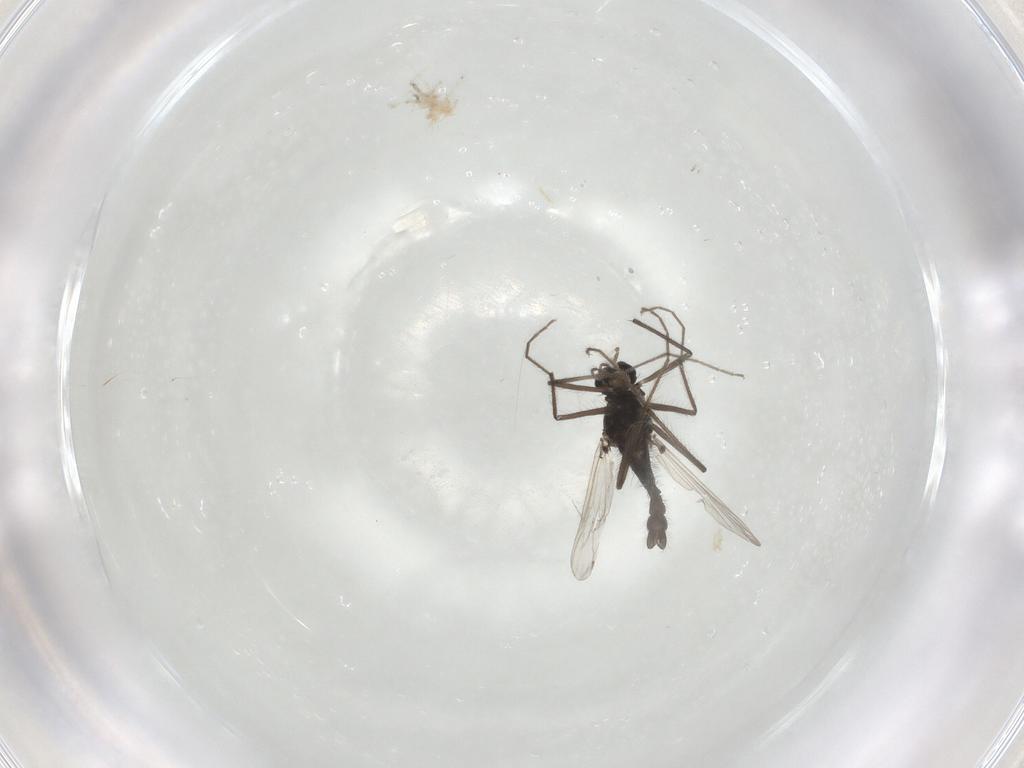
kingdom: Animalia
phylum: Arthropoda
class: Insecta
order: Diptera
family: Chironomidae
